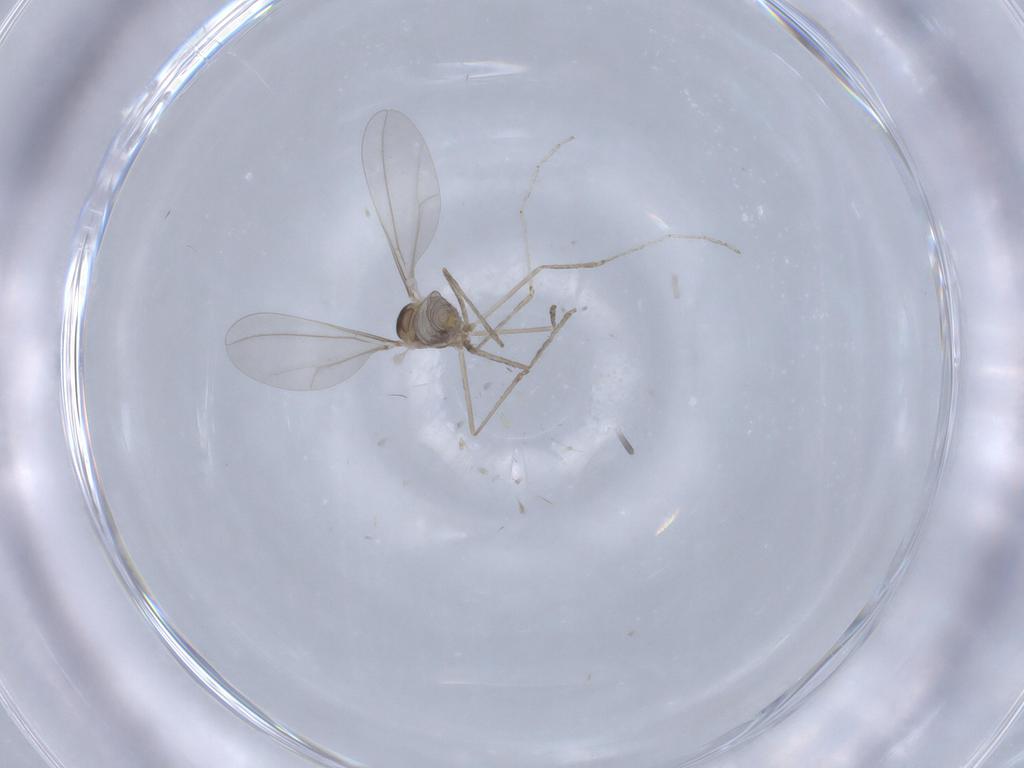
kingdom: Animalia
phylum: Arthropoda
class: Insecta
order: Diptera
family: Cecidomyiidae
